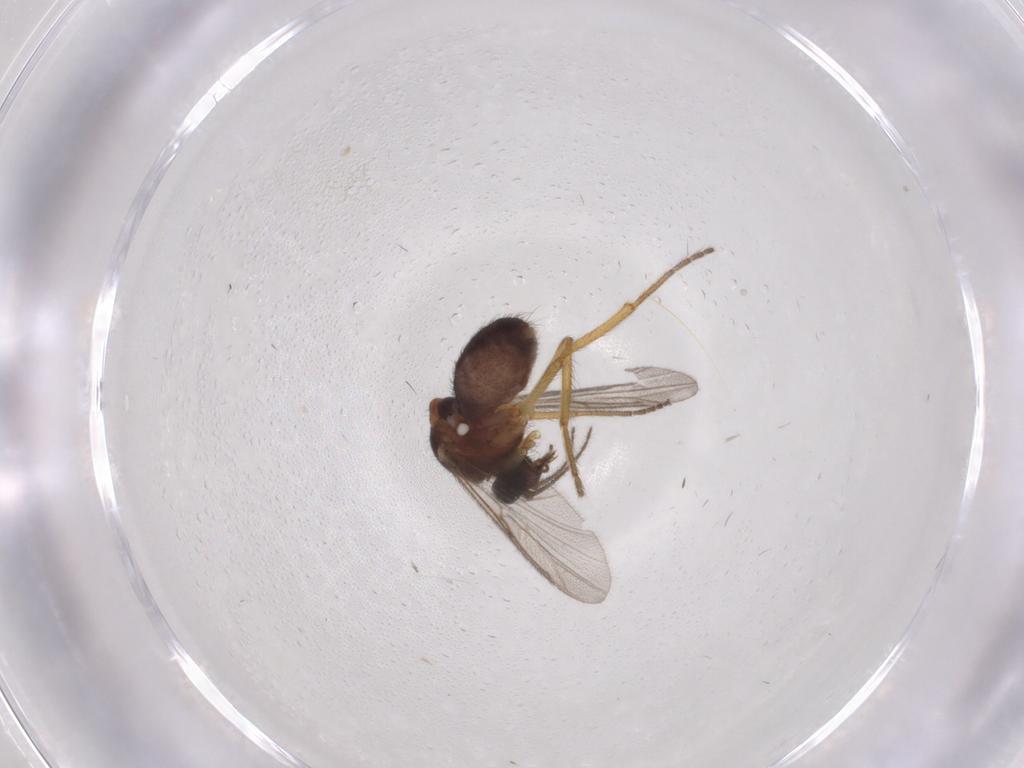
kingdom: Animalia
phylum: Arthropoda
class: Insecta
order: Diptera
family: Ceratopogonidae
